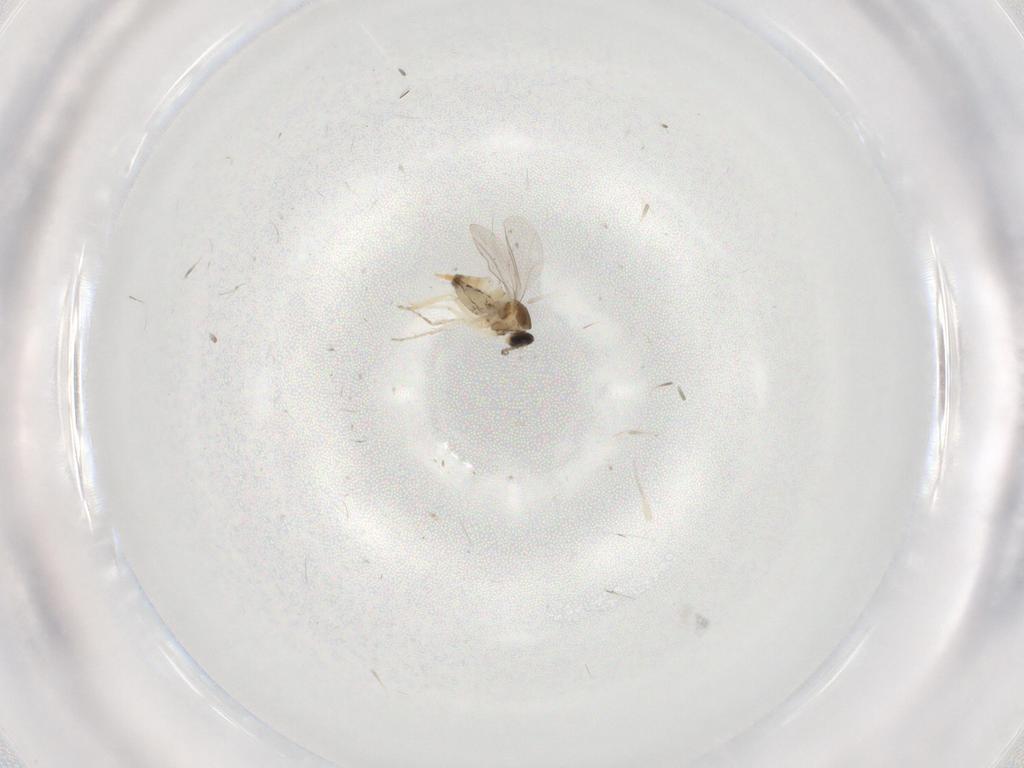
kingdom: Animalia
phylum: Arthropoda
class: Insecta
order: Diptera
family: Cecidomyiidae
